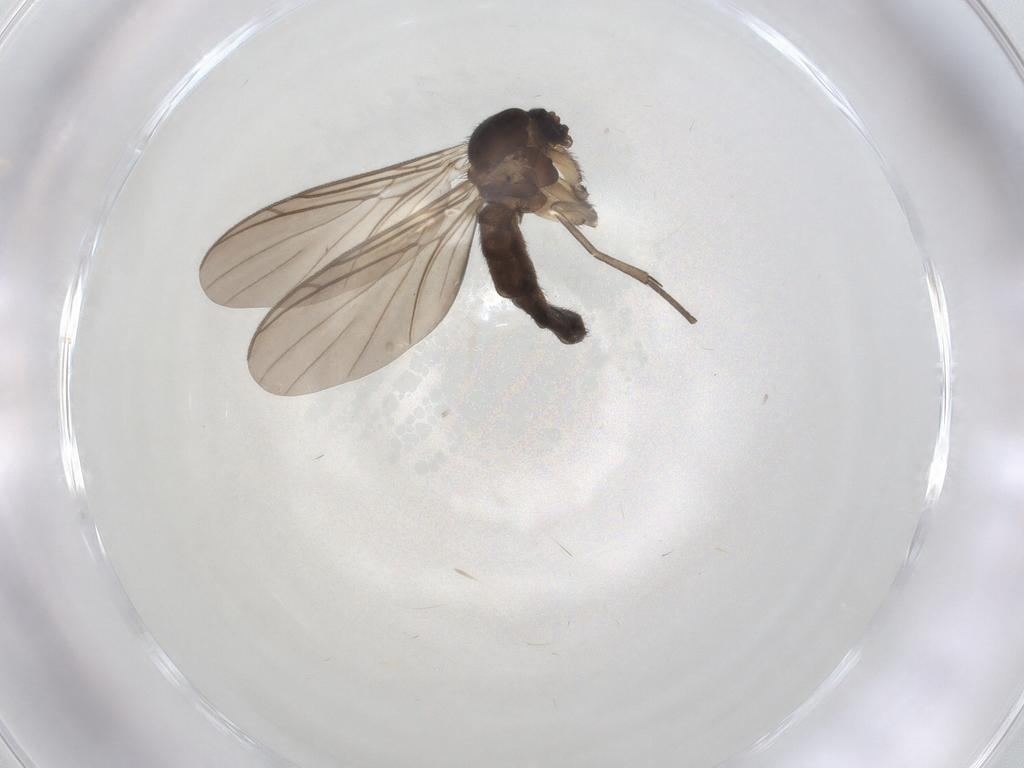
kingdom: Animalia
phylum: Arthropoda
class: Insecta
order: Diptera
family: Keroplatidae
